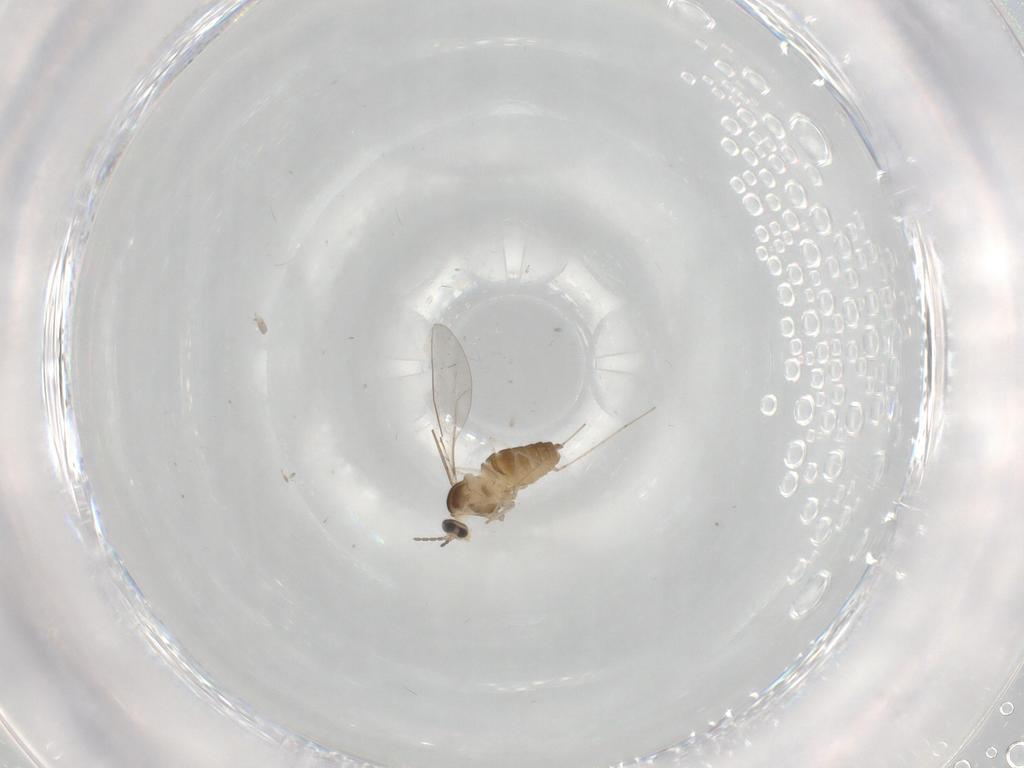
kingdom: Animalia
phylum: Arthropoda
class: Insecta
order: Diptera
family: Cecidomyiidae
